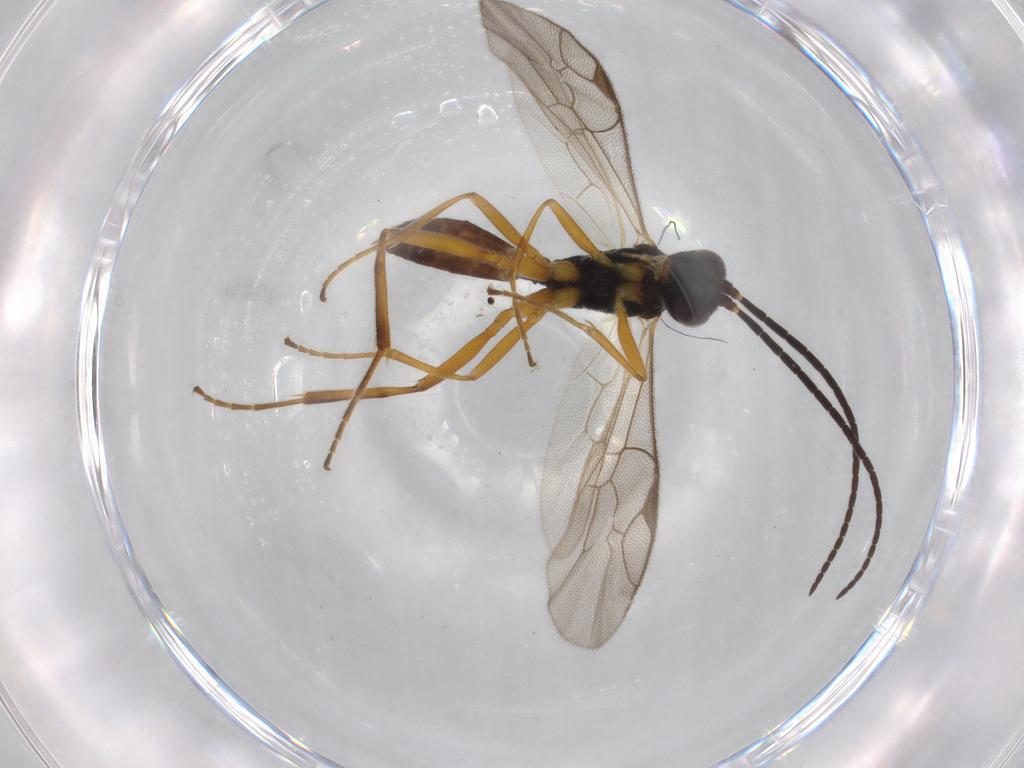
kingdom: Animalia
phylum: Arthropoda
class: Insecta
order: Hymenoptera
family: Ichneumonidae
